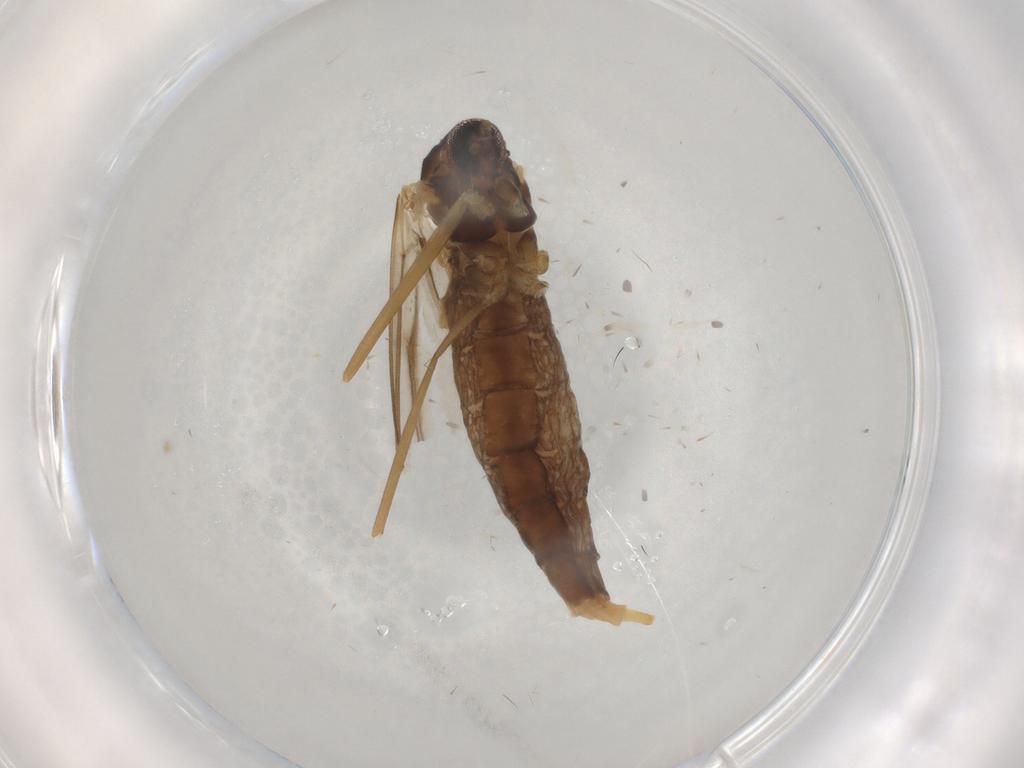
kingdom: Animalia
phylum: Arthropoda
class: Insecta
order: Diptera
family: Cecidomyiidae
